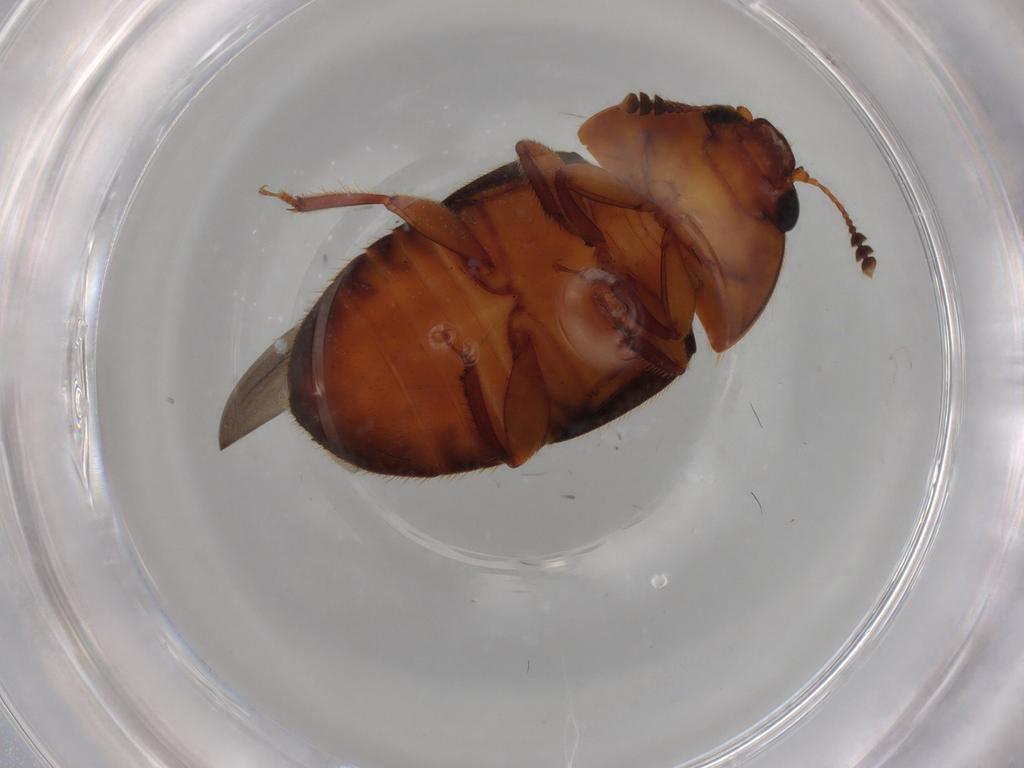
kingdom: Animalia
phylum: Arthropoda
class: Insecta
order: Coleoptera
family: Nitidulidae
